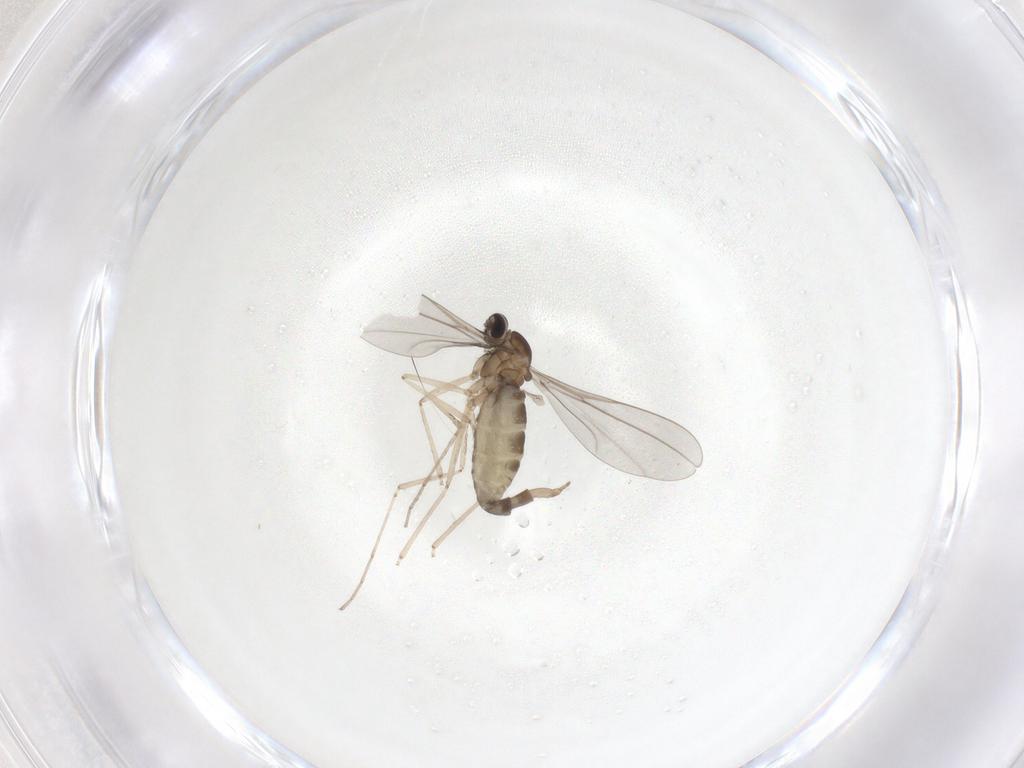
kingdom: Animalia
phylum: Arthropoda
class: Insecta
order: Diptera
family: Cecidomyiidae
